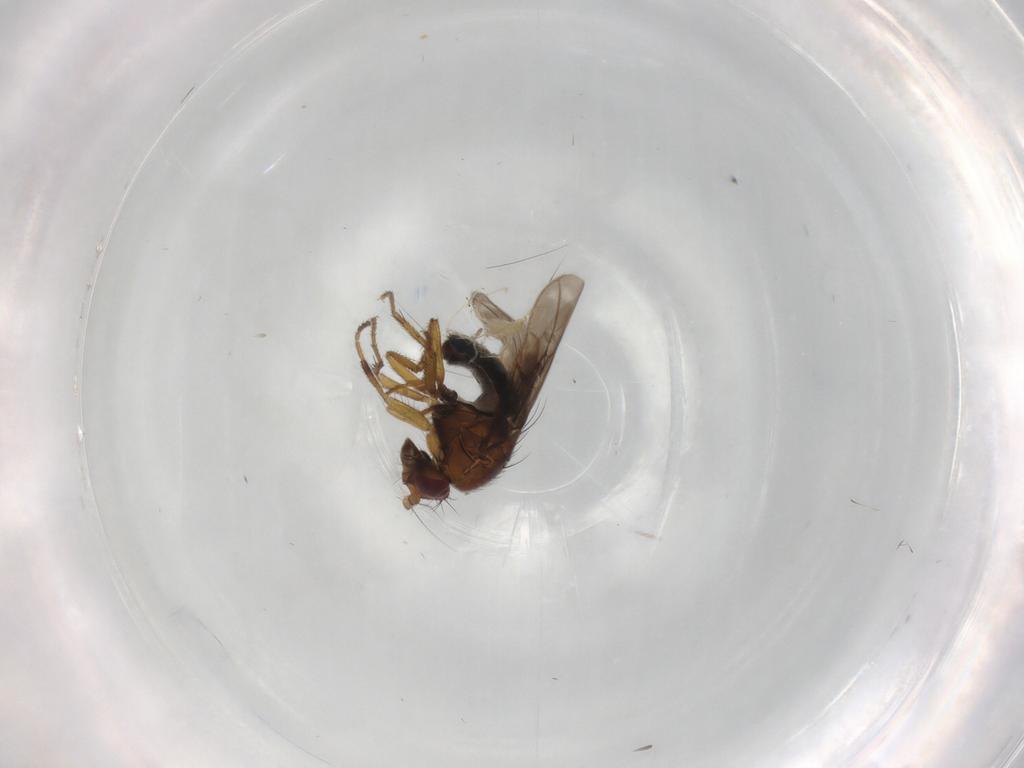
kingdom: Animalia
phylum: Arthropoda
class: Insecta
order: Diptera
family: Sphaeroceridae
